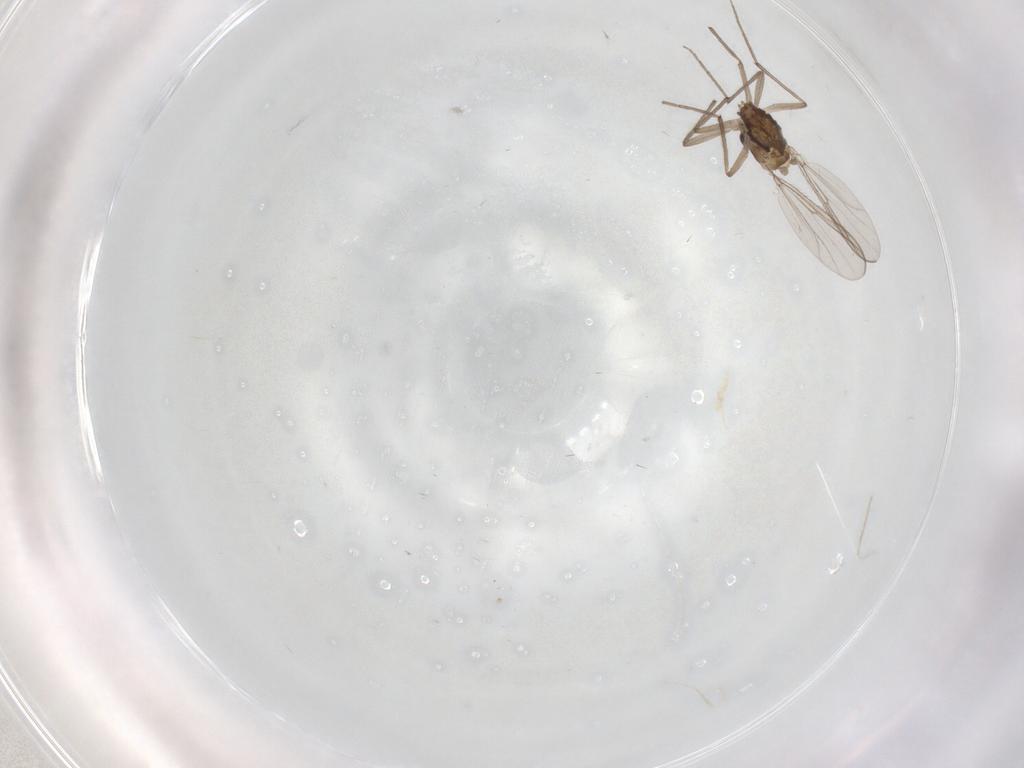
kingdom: Animalia
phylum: Arthropoda
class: Insecta
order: Diptera
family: Chironomidae
